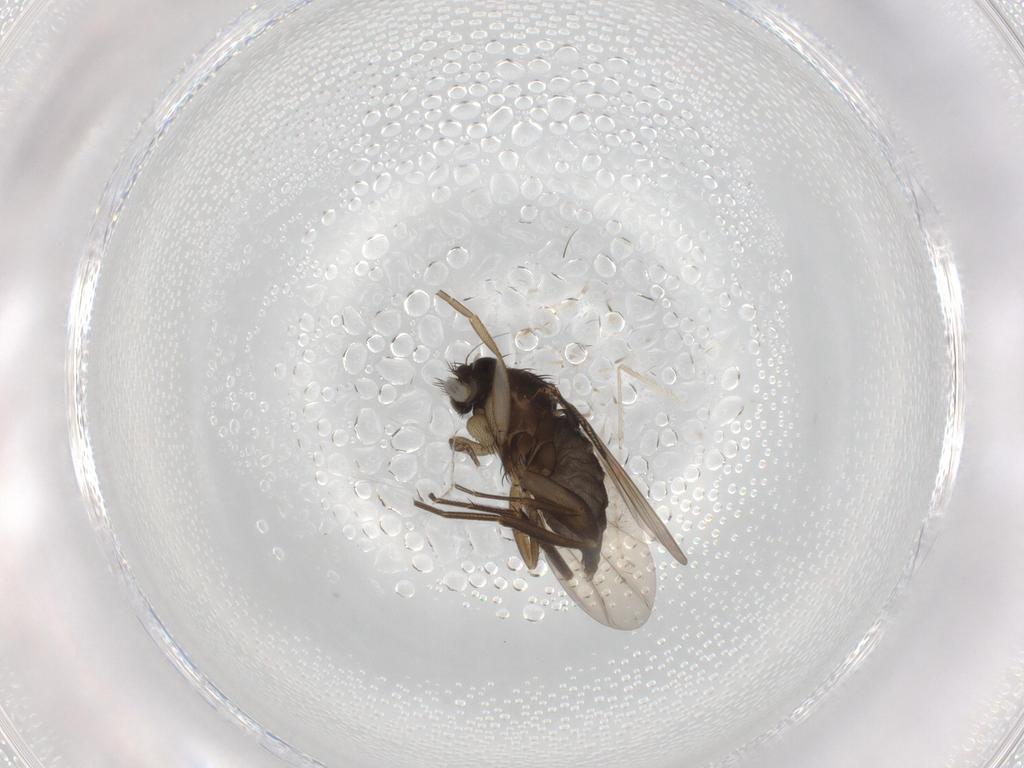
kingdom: Animalia
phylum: Arthropoda
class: Insecta
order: Diptera
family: Cecidomyiidae
